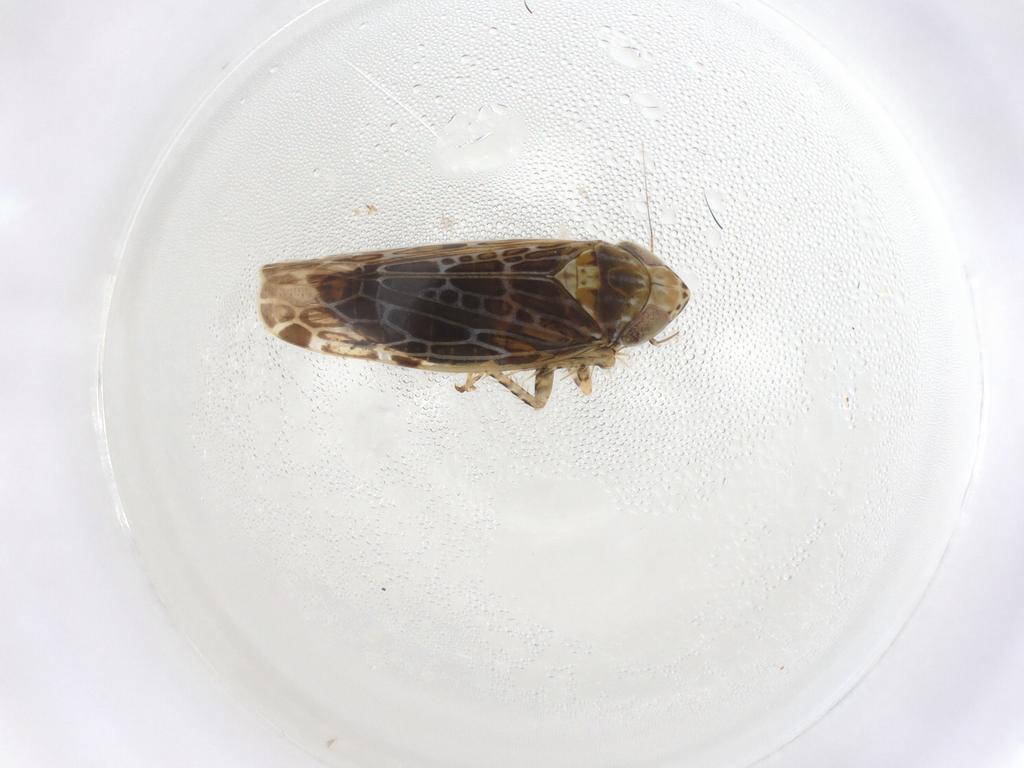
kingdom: Animalia
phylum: Arthropoda
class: Insecta
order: Hemiptera
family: Cicadellidae
